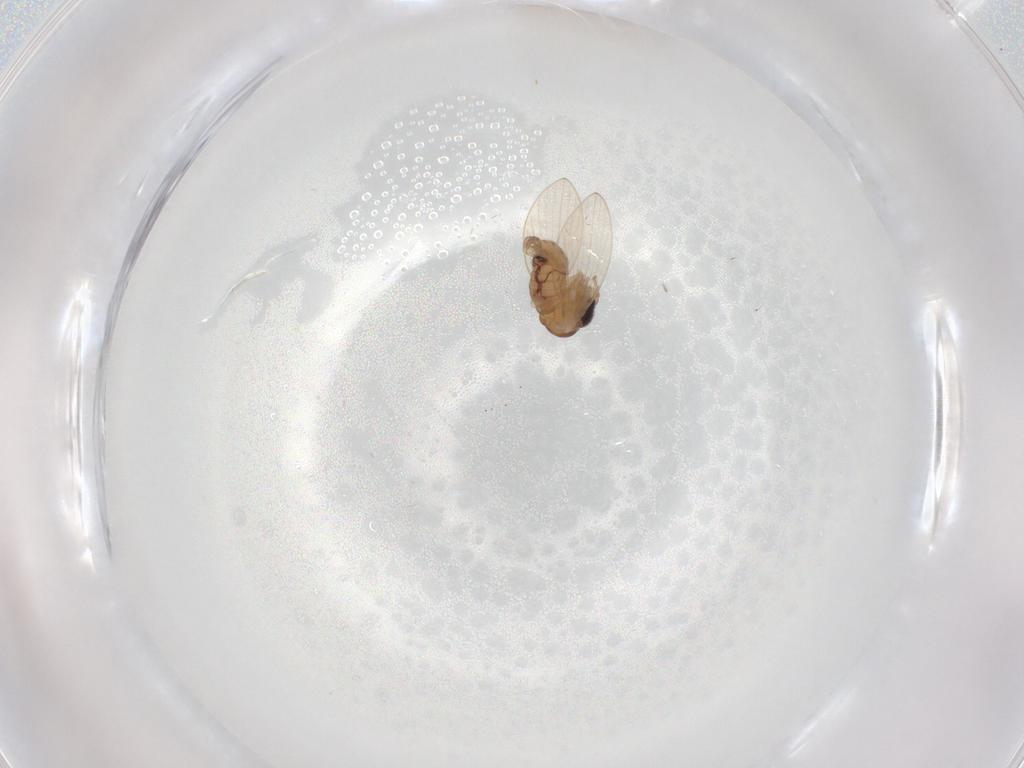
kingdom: Animalia
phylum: Arthropoda
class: Insecta
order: Diptera
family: Psychodidae
